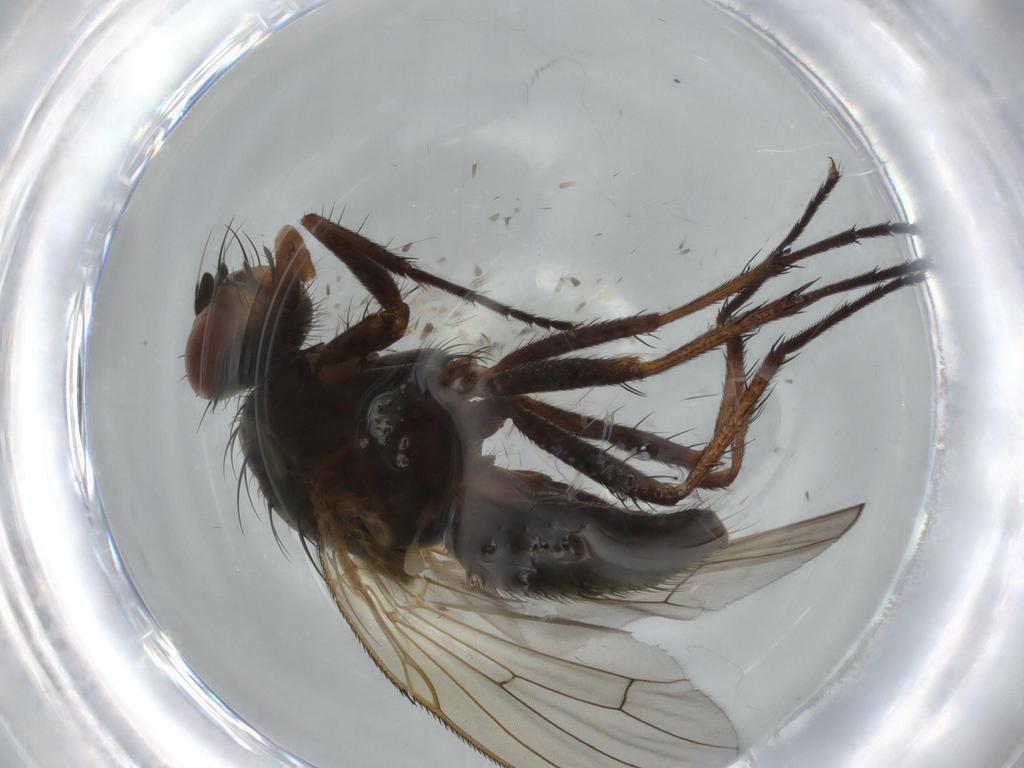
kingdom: Animalia
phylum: Arthropoda
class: Insecta
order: Diptera
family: Anthomyiidae
